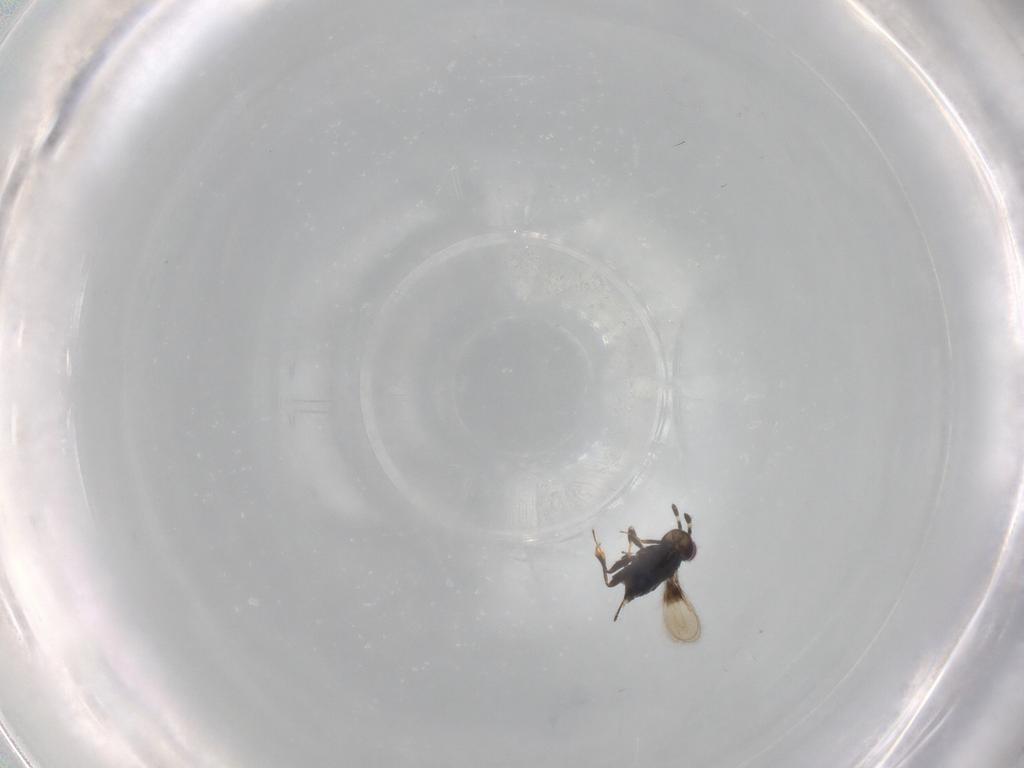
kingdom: Animalia
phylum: Arthropoda
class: Insecta
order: Hymenoptera
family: Azotidae
